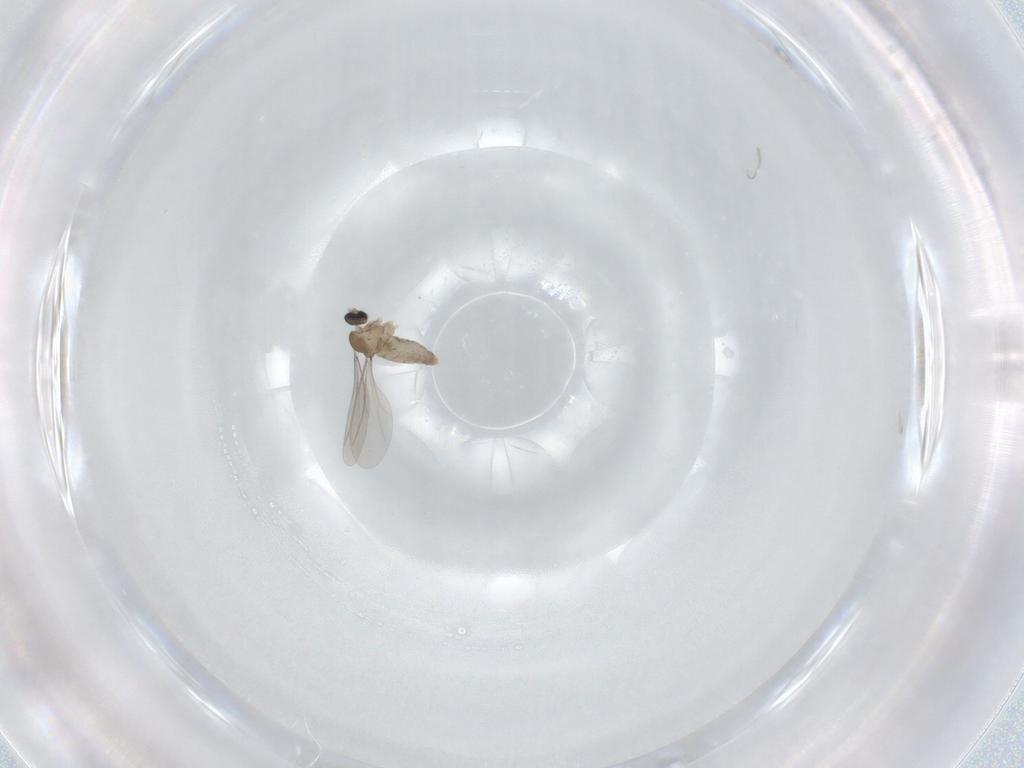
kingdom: Animalia
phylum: Arthropoda
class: Insecta
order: Diptera
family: Cecidomyiidae
